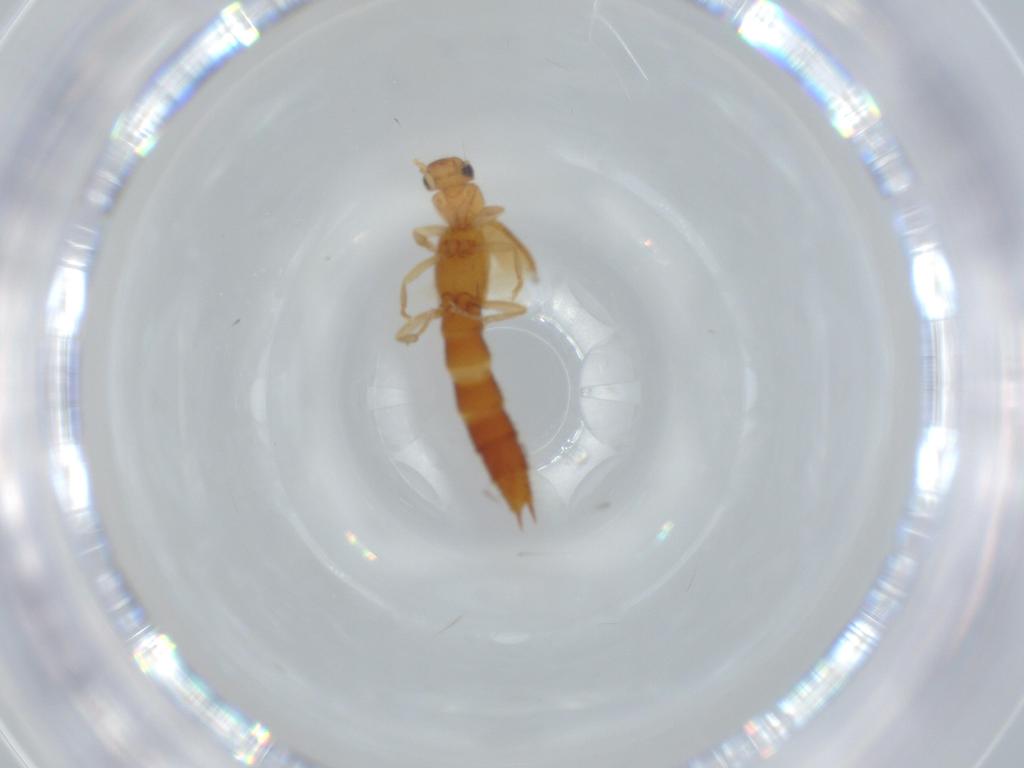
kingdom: Animalia
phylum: Arthropoda
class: Insecta
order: Coleoptera
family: Staphylinidae
